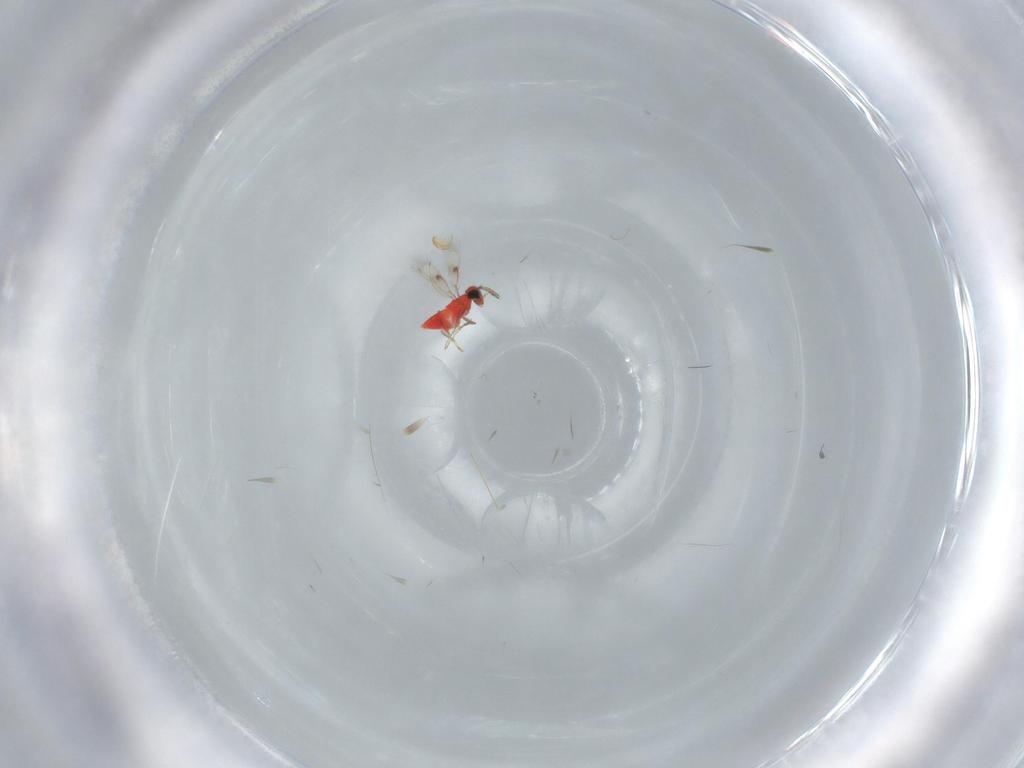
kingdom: Animalia
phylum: Arthropoda
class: Insecta
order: Hymenoptera
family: Trichogrammatidae
